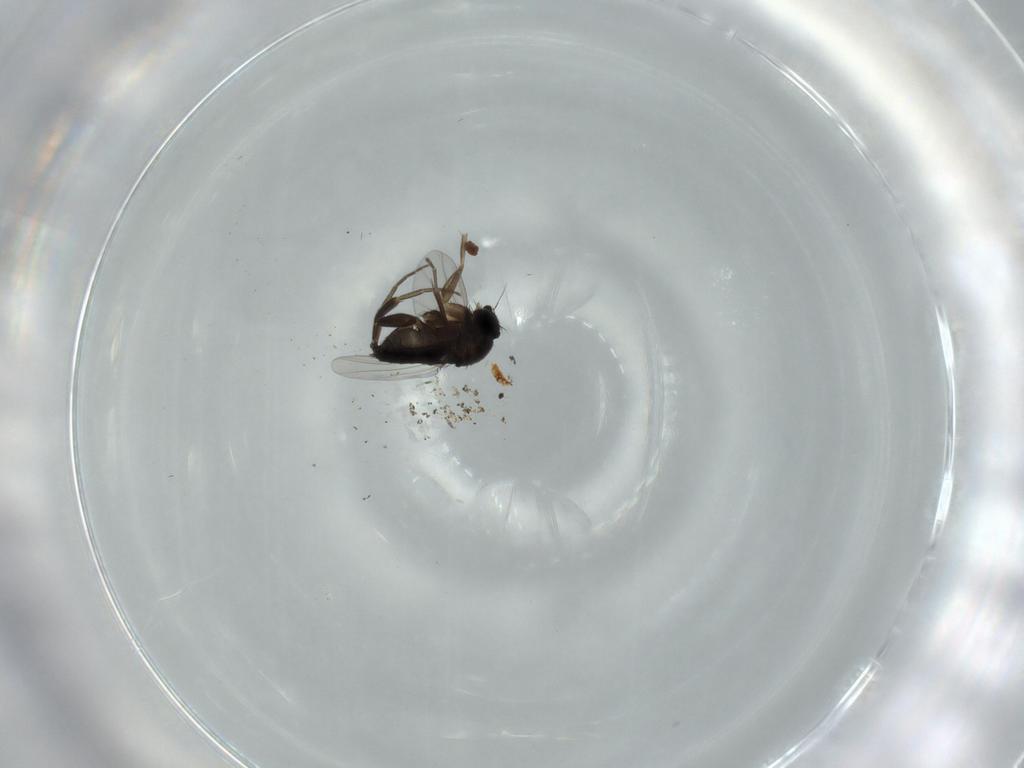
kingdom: Animalia
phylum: Arthropoda
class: Insecta
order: Diptera
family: Phoridae
